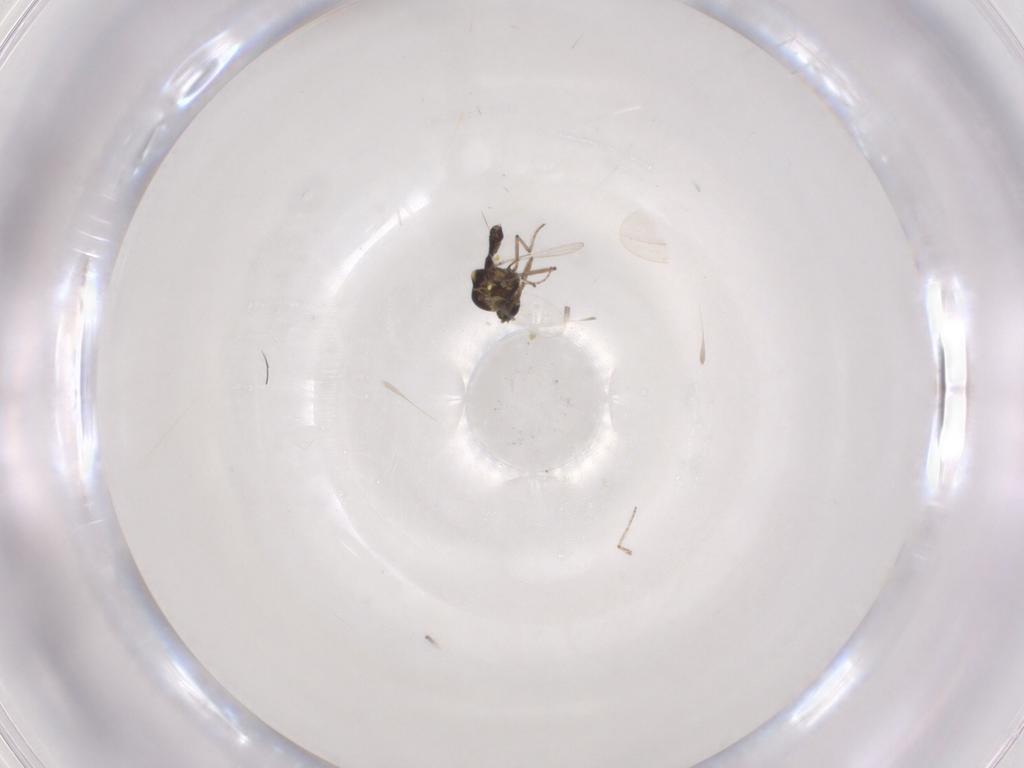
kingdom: Animalia
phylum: Arthropoda
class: Insecta
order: Diptera
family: Ceratopogonidae
